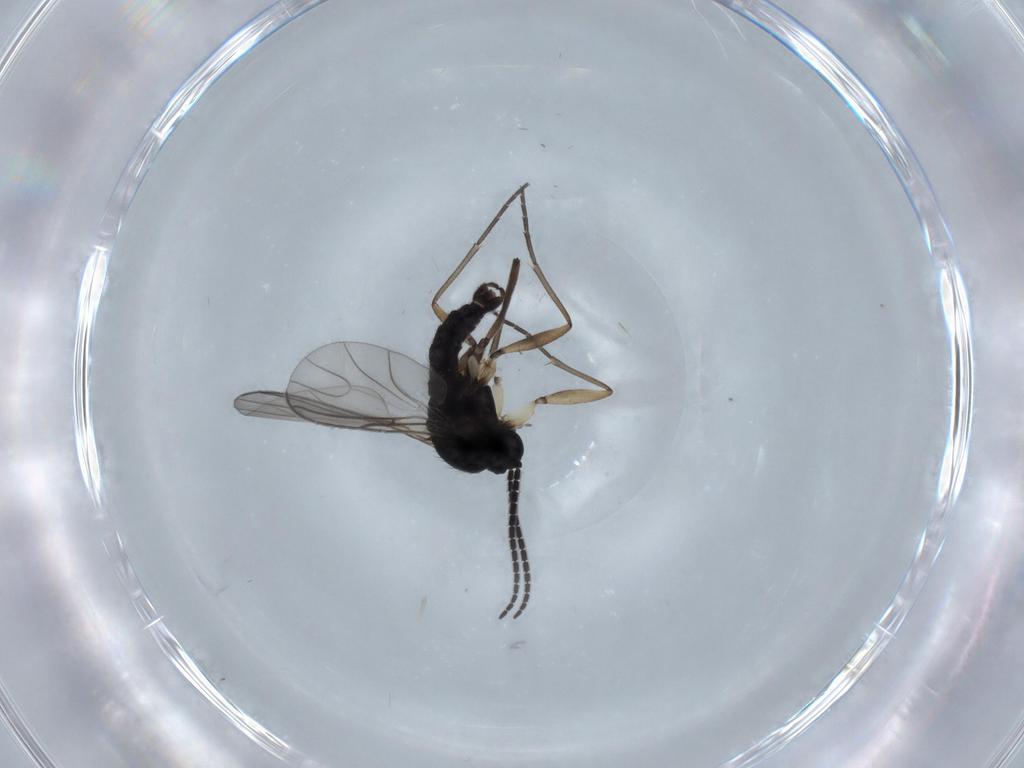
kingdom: Animalia
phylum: Arthropoda
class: Insecta
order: Diptera
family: Sciaridae
